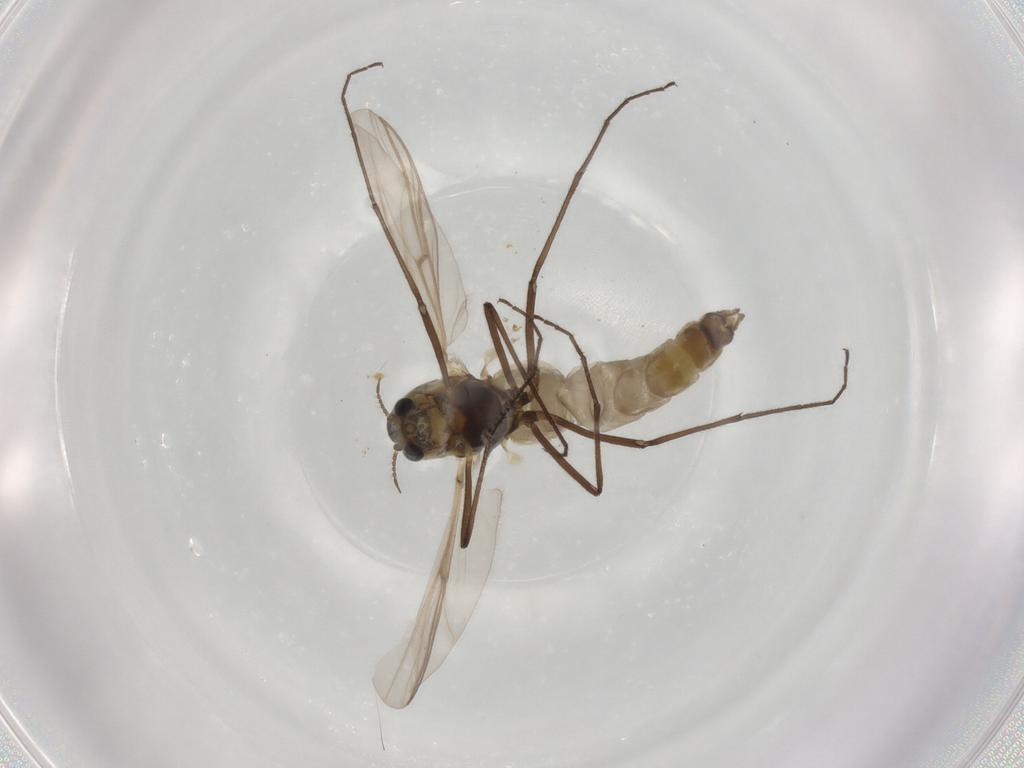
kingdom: Animalia
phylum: Arthropoda
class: Insecta
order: Diptera
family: Chironomidae
